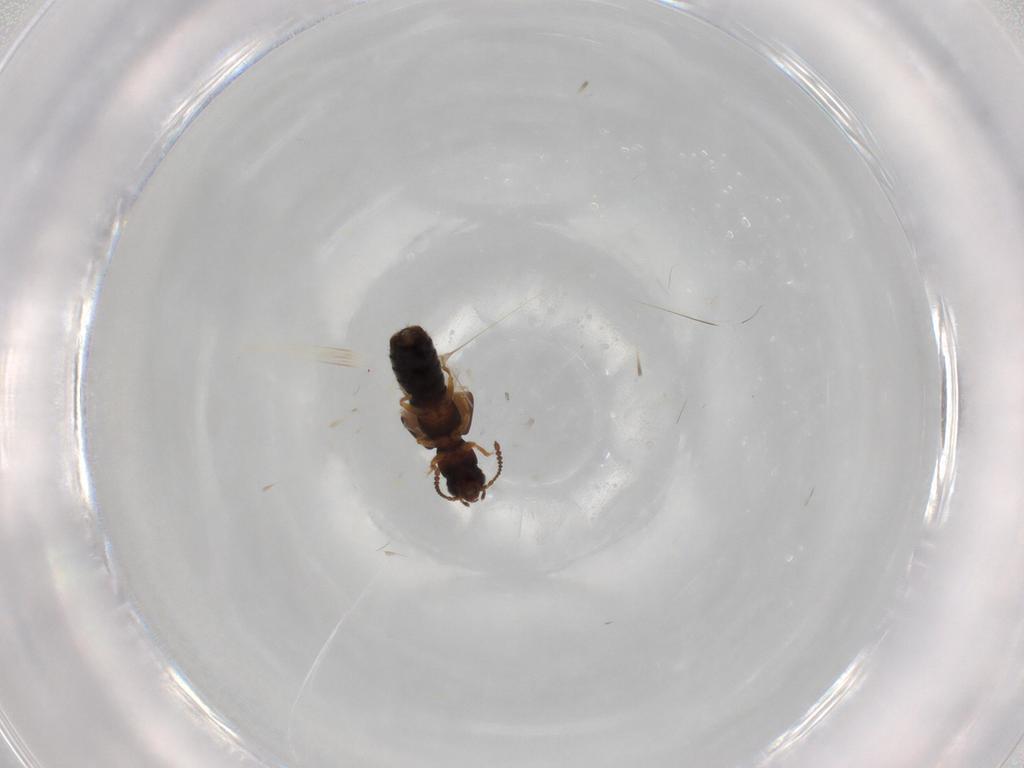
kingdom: Animalia
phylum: Arthropoda
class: Insecta
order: Coleoptera
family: Staphylinidae
